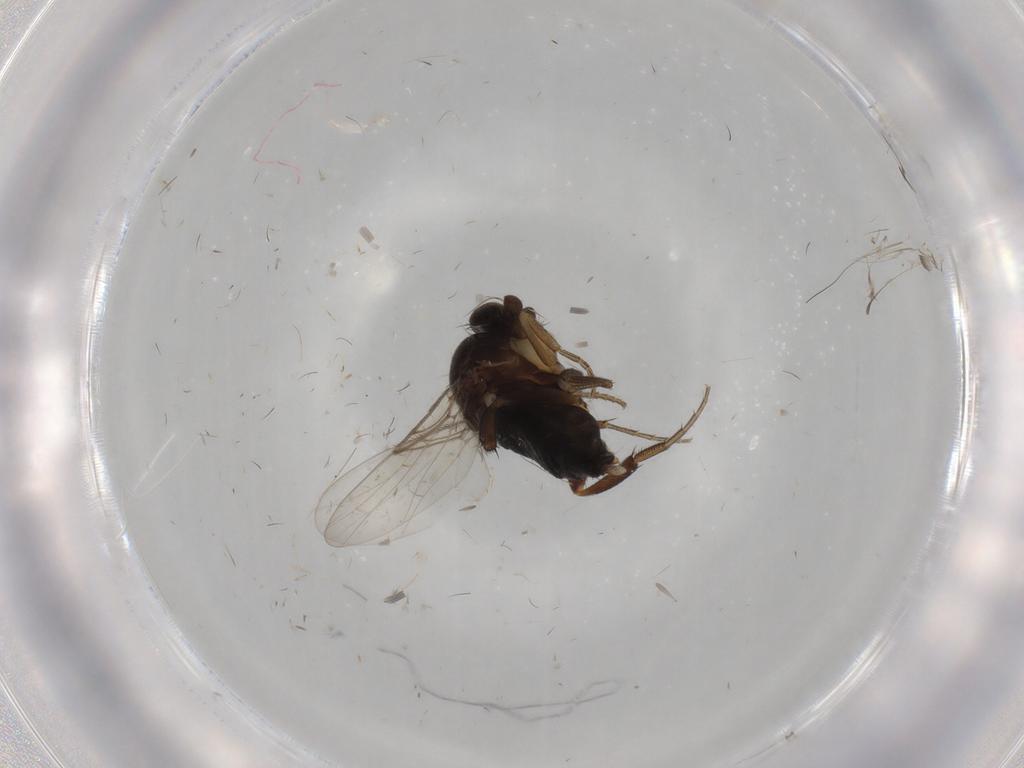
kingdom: Animalia
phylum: Arthropoda
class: Insecta
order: Diptera
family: Phoridae
